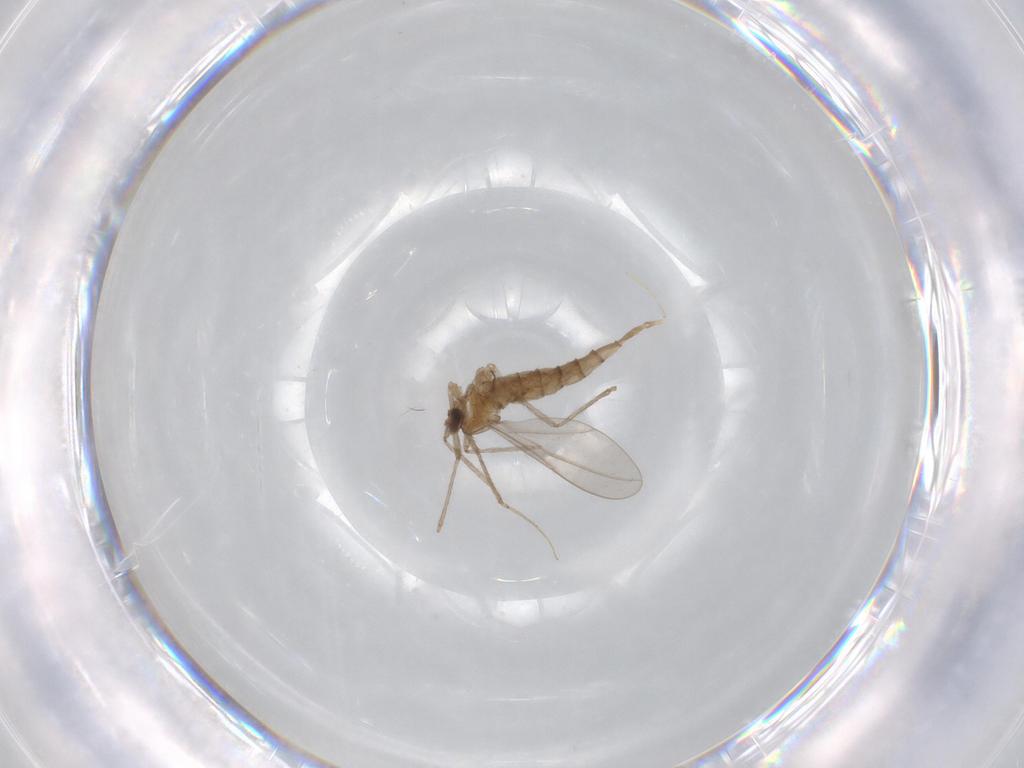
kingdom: Animalia
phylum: Arthropoda
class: Insecta
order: Diptera
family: Cecidomyiidae
